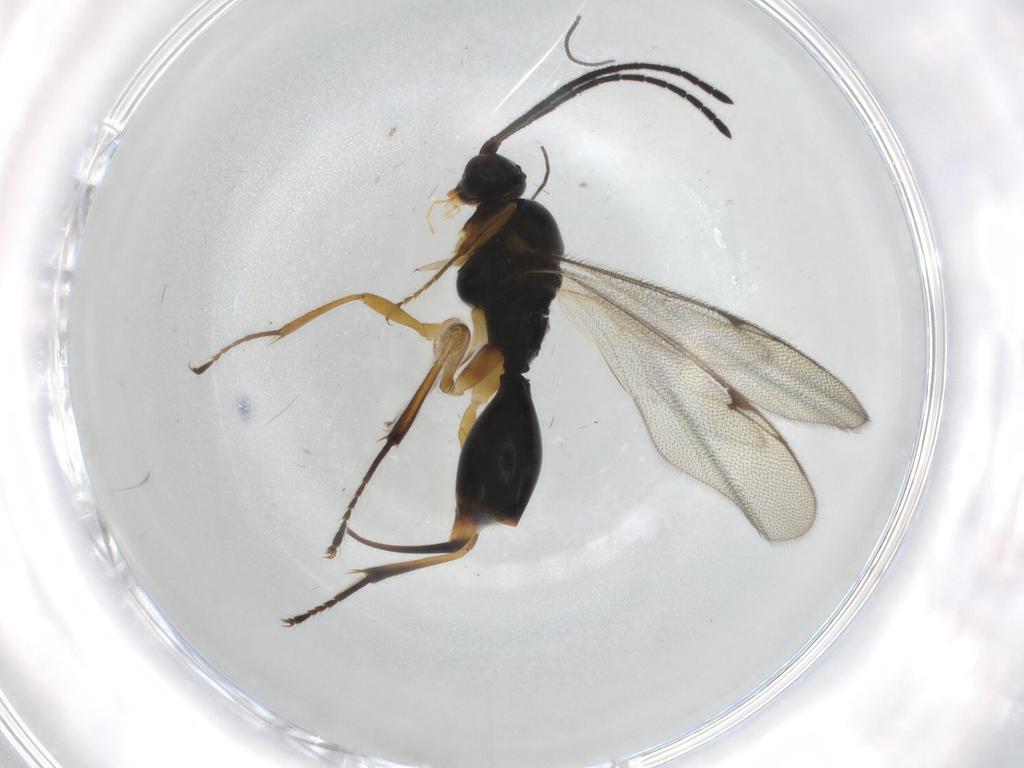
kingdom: Animalia
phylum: Arthropoda
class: Insecta
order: Hymenoptera
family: Proctotrupidae
